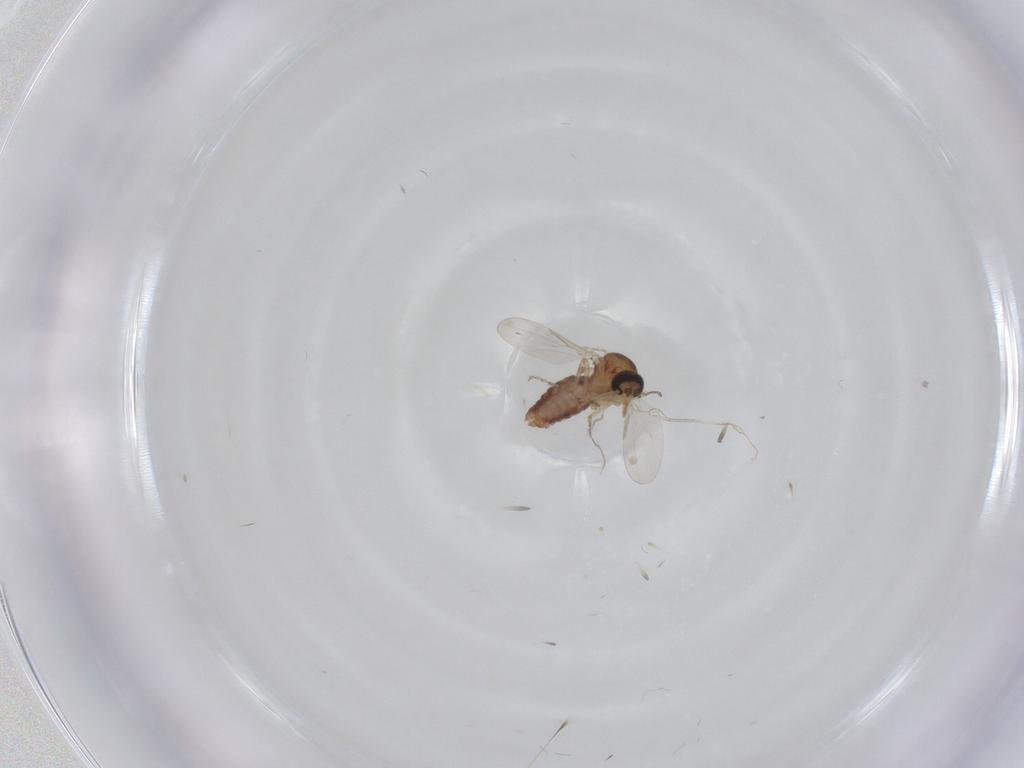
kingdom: Animalia
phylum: Arthropoda
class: Insecta
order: Diptera
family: Ceratopogonidae
